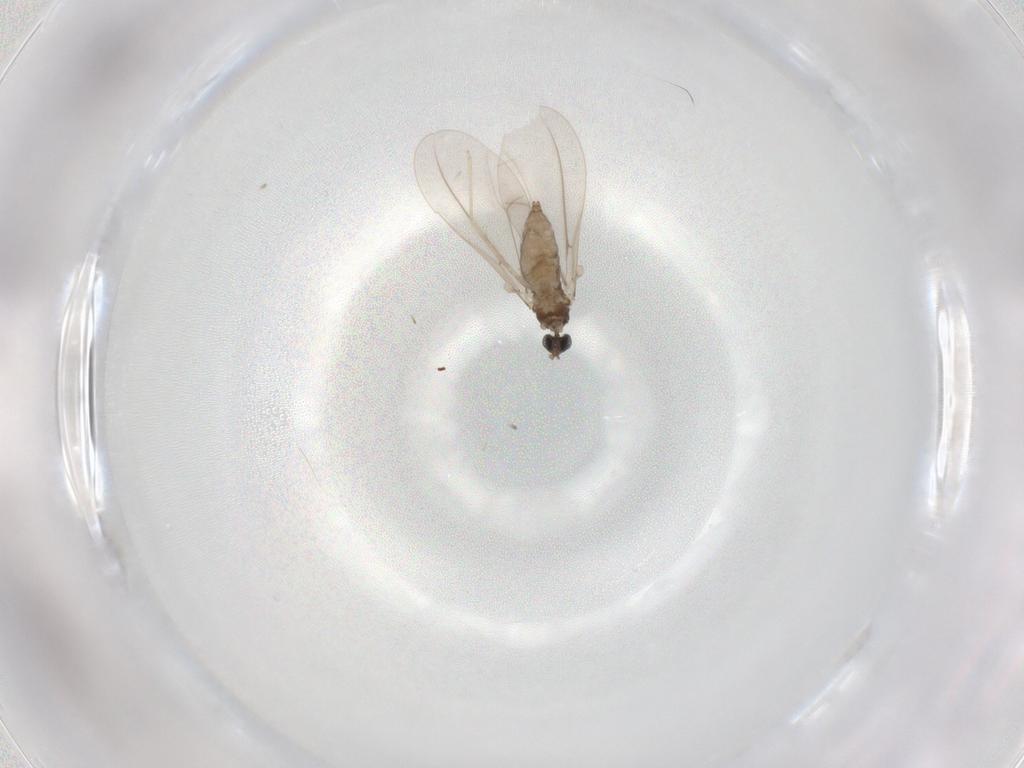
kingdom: Animalia
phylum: Arthropoda
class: Insecta
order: Diptera
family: Cecidomyiidae
